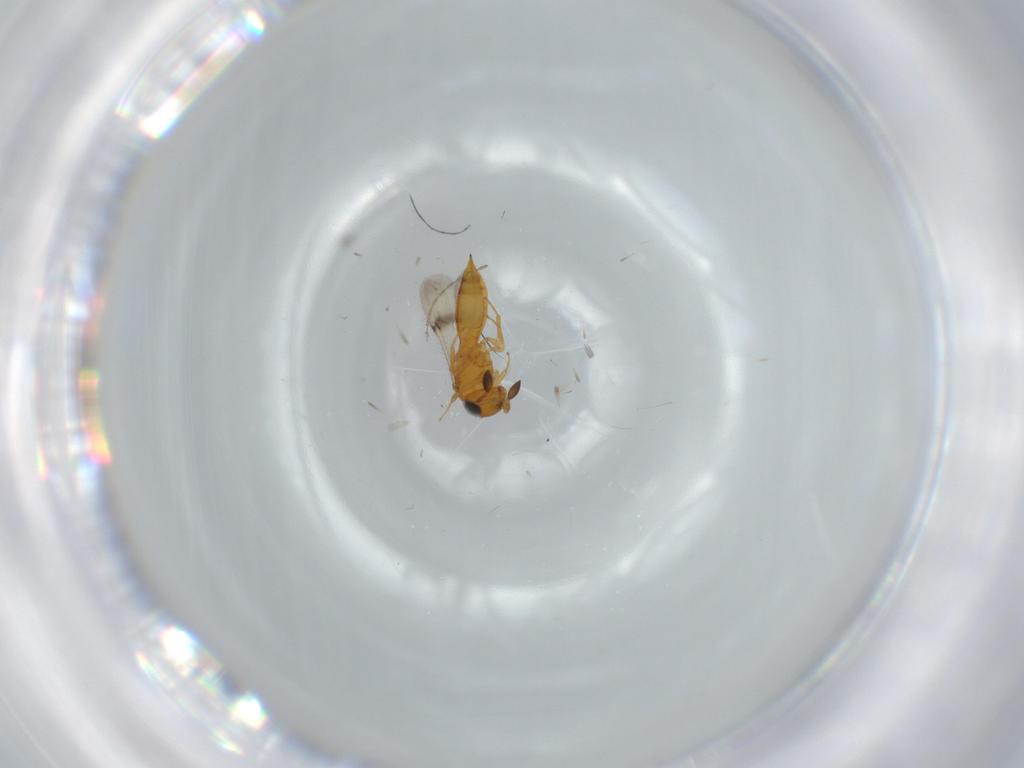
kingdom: Animalia
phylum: Arthropoda
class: Insecta
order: Hymenoptera
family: Scelionidae
